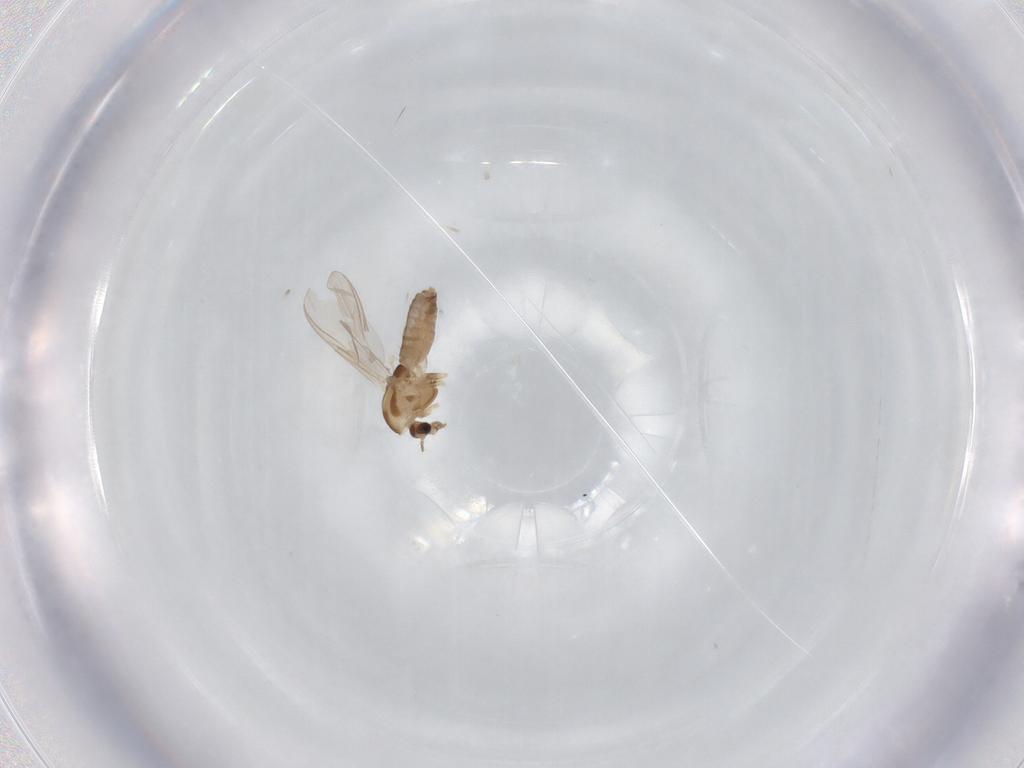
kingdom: Animalia
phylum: Arthropoda
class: Insecta
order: Diptera
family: Chironomidae
